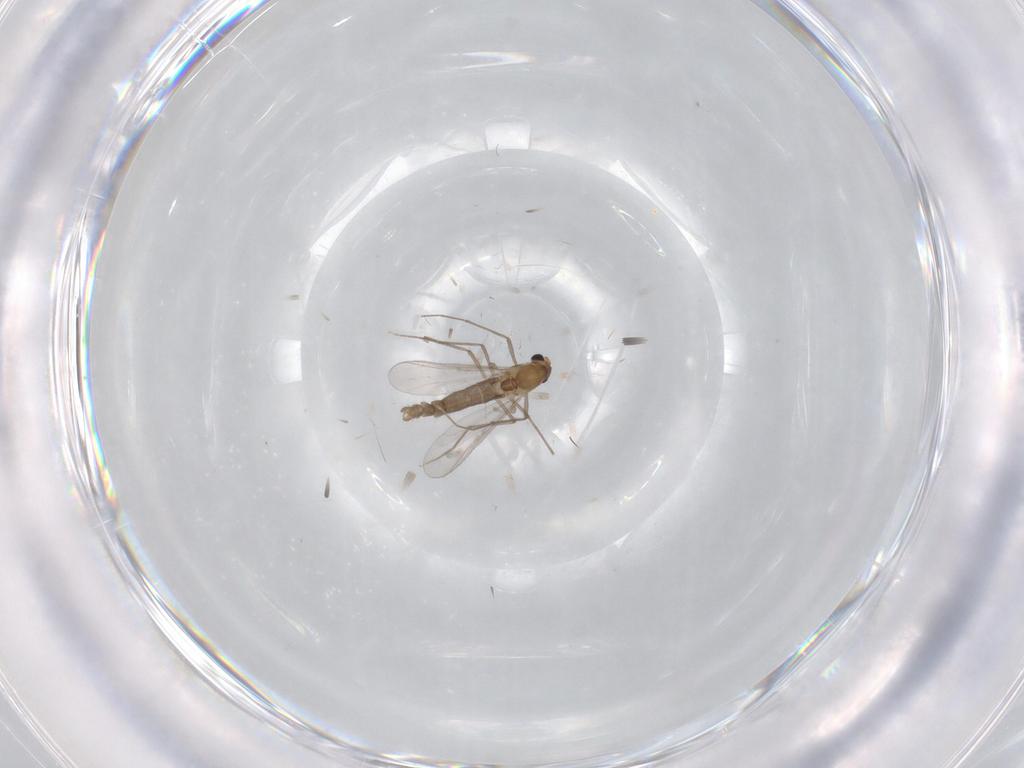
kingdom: Animalia
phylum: Arthropoda
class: Insecta
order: Diptera
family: Chironomidae
